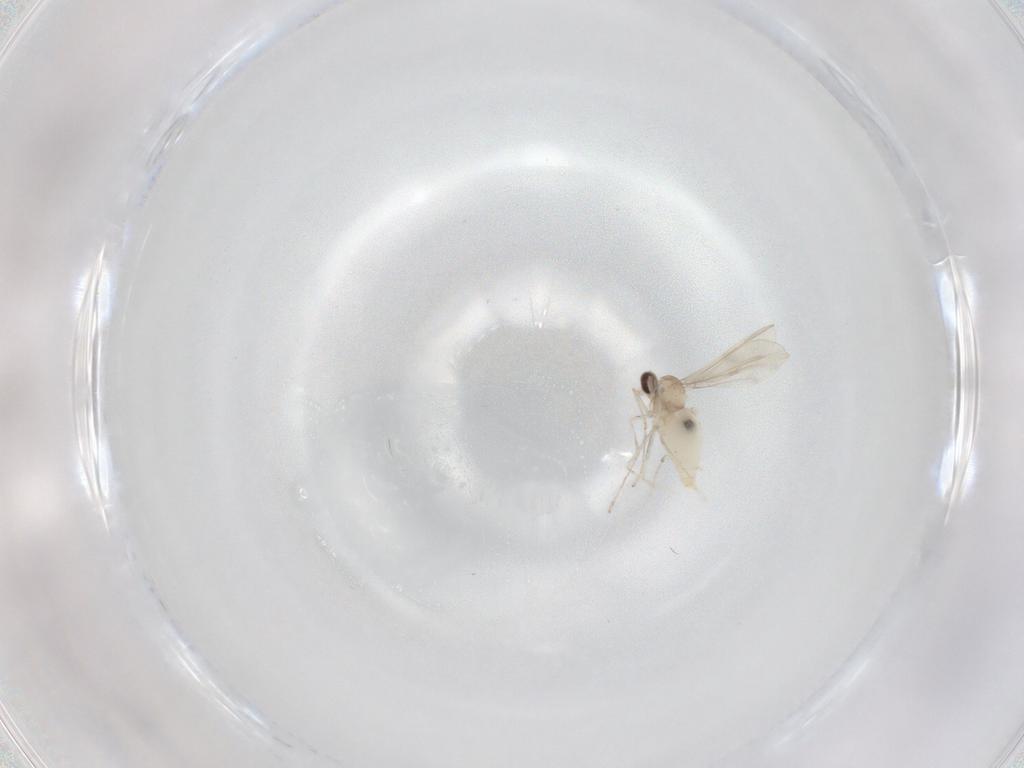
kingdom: Animalia
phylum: Arthropoda
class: Insecta
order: Diptera
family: Cecidomyiidae
